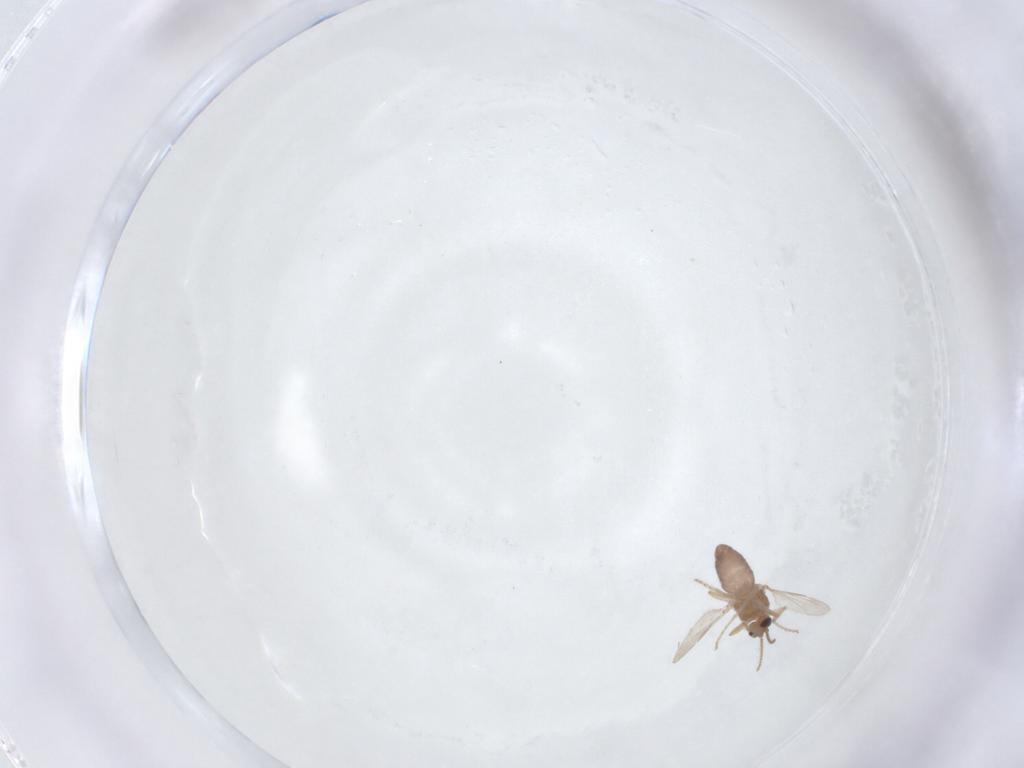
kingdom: Animalia
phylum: Arthropoda
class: Insecta
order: Diptera
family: Ceratopogonidae
